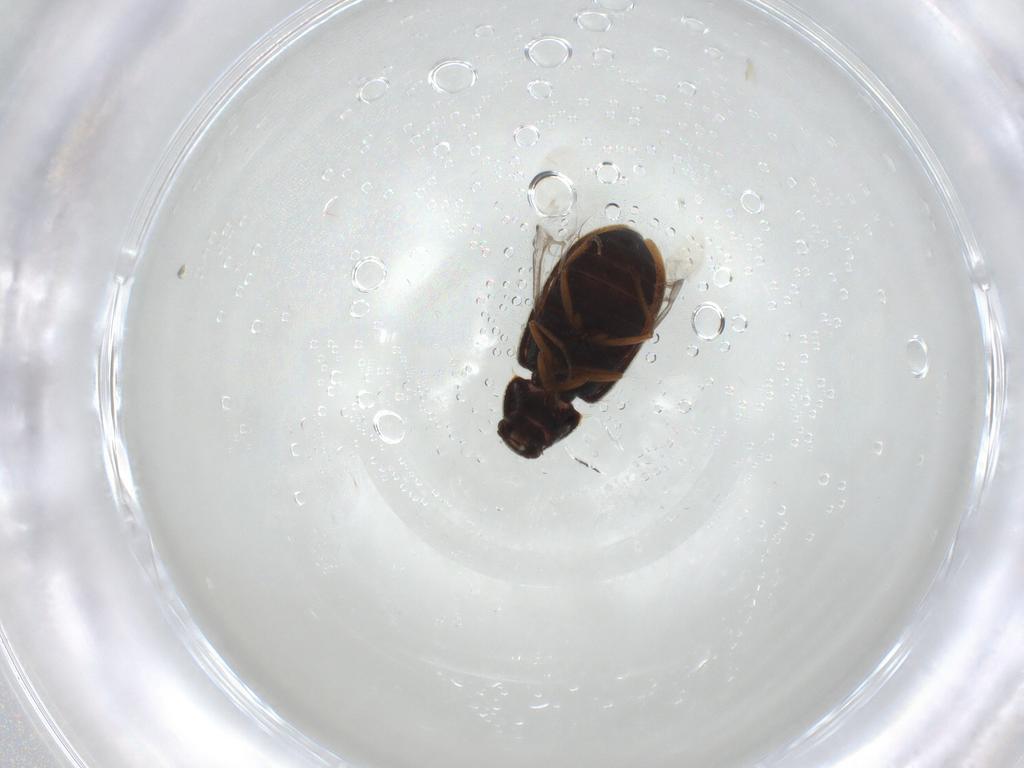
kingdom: Animalia
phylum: Arthropoda
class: Insecta
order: Coleoptera
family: Rhadalidae
